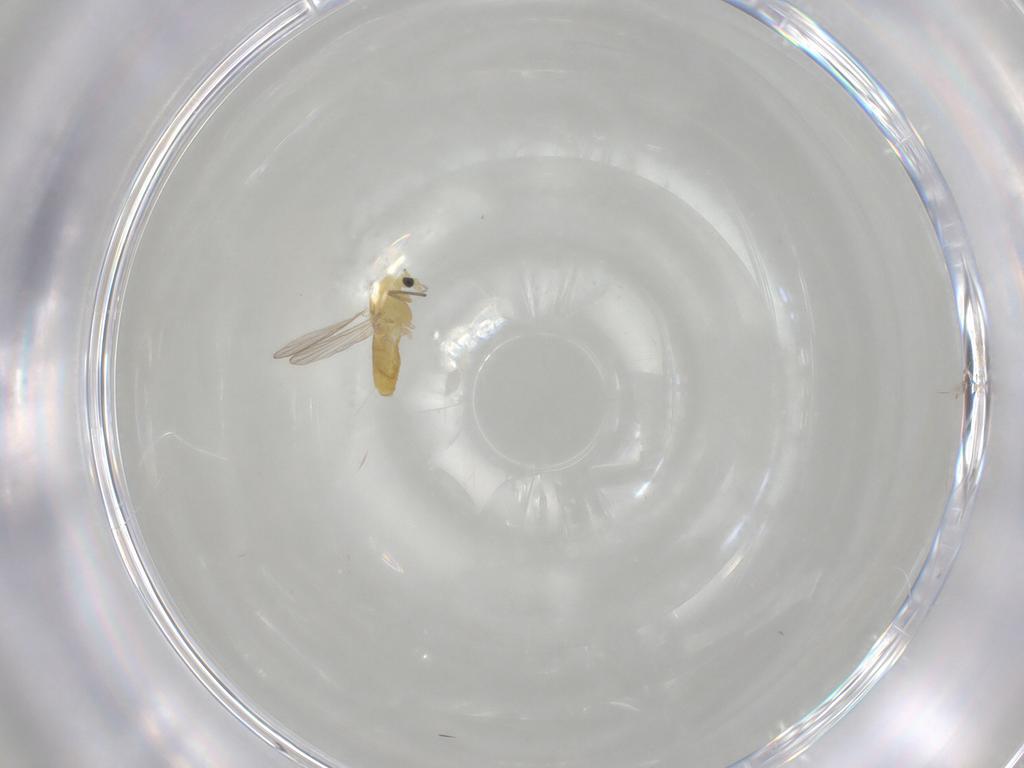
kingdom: Animalia
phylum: Arthropoda
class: Insecta
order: Diptera
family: Chironomidae
